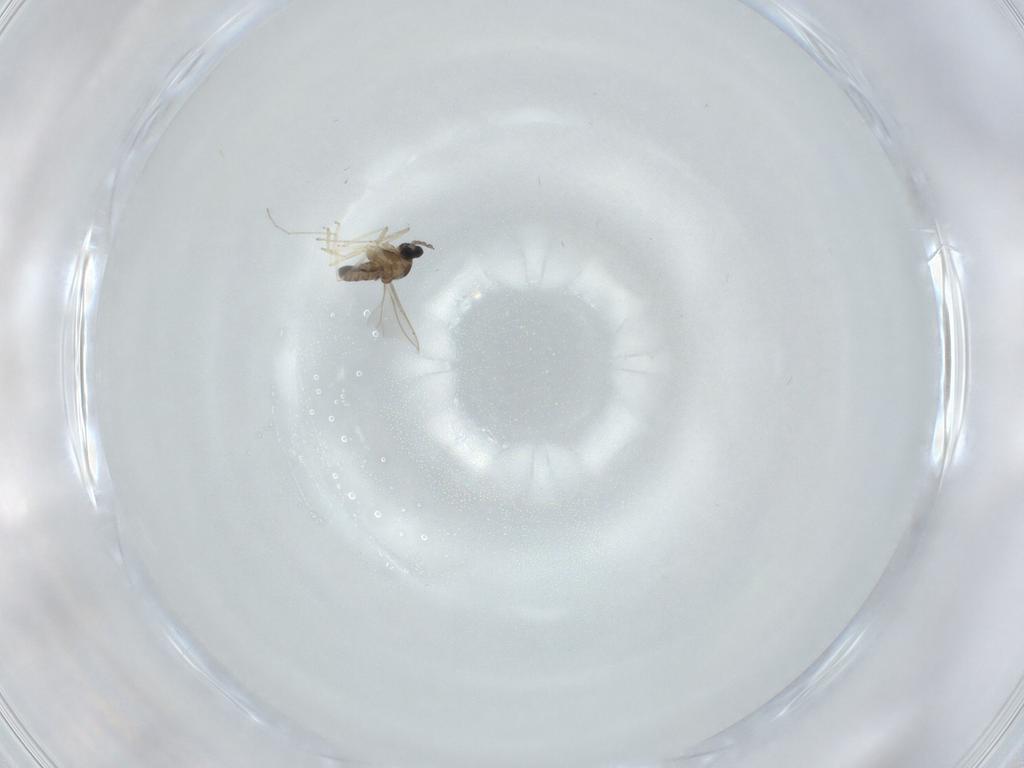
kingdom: Animalia
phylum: Arthropoda
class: Insecta
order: Diptera
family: Cecidomyiidae
